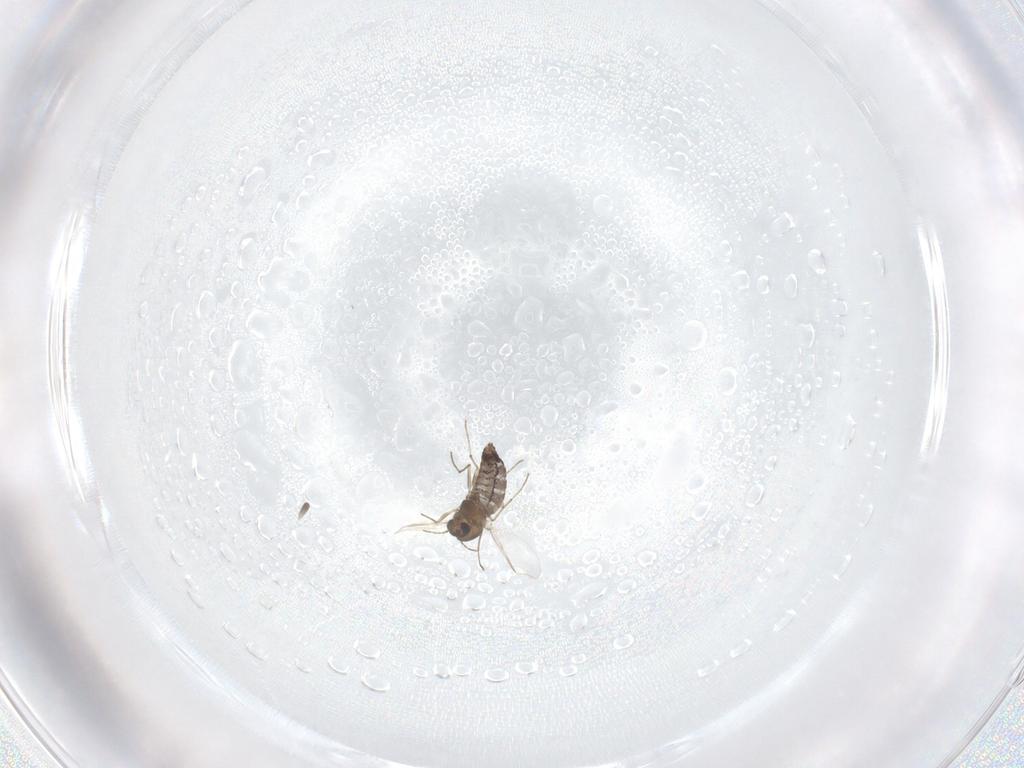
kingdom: Animalia
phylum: Arthropoda
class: Insecta
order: Diptera
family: Chironomidae
